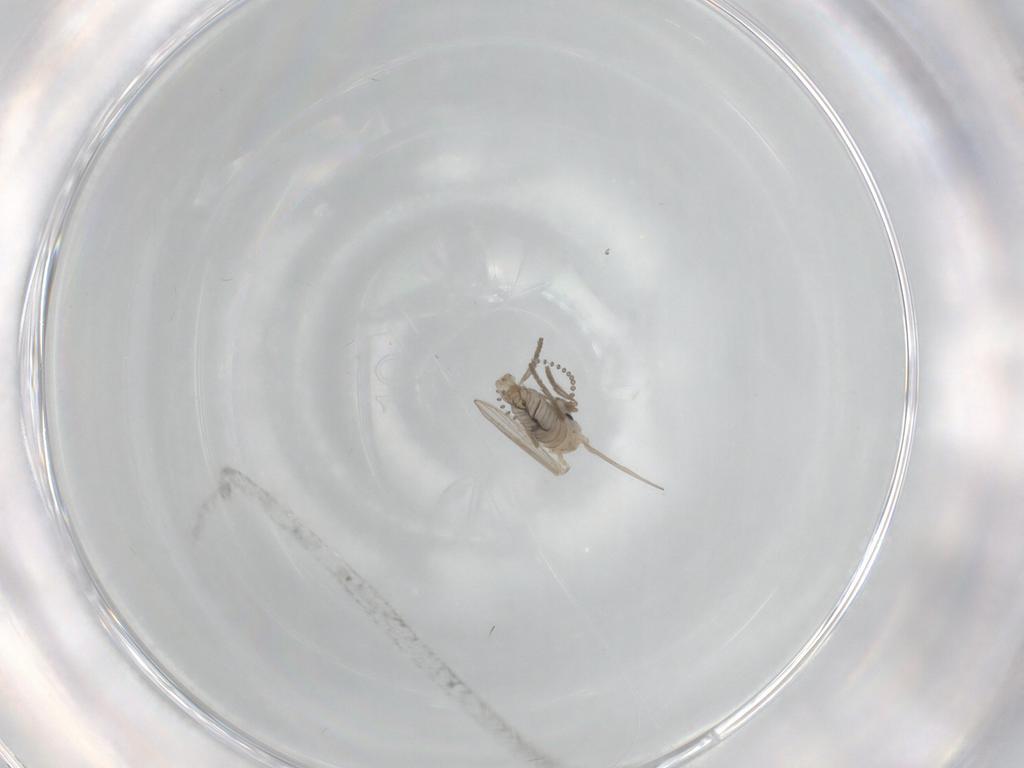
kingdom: Animalia
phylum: Arthropoda
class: Insecta
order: Diptera
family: Psychodidae
